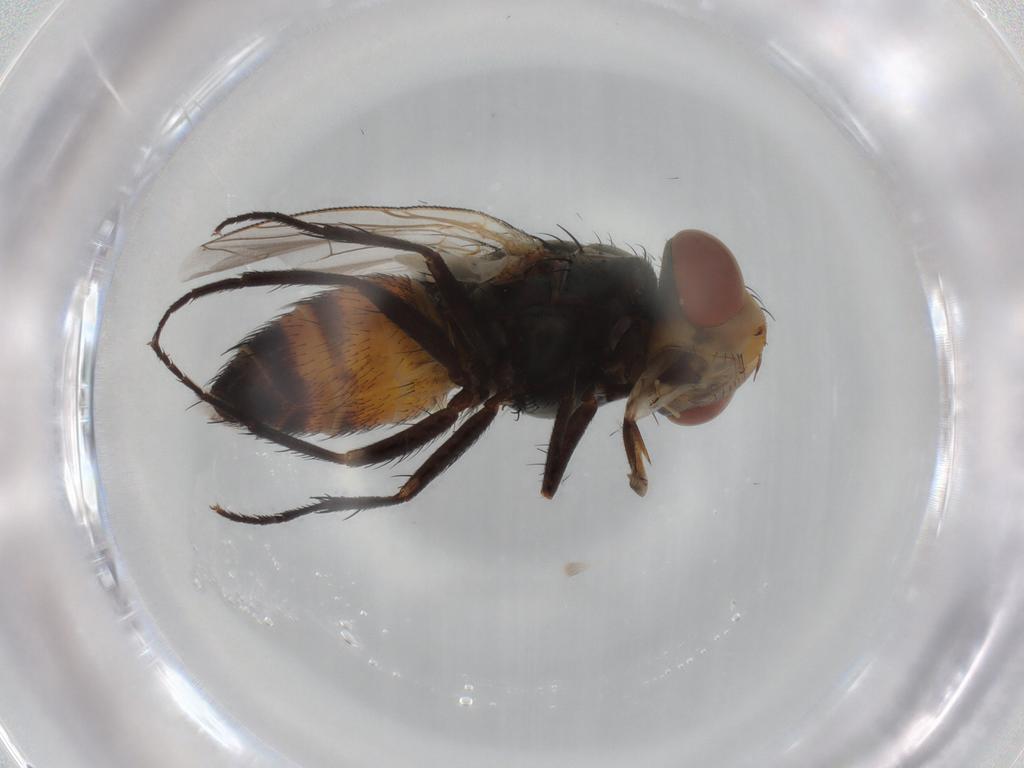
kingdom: Animalia
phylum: Arthropoda
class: Insecta
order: Diptera
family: Sarcophagidae
